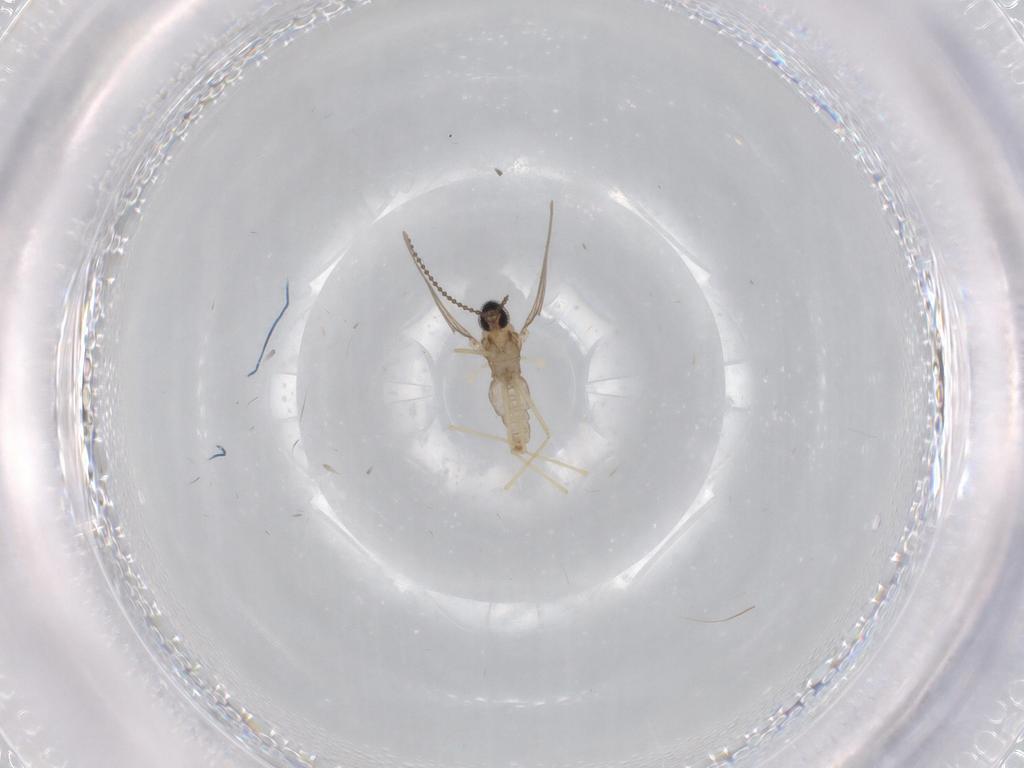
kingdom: Animalia
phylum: Arthropoda
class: Insecta
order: Diptera
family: Cecidomyiidae
